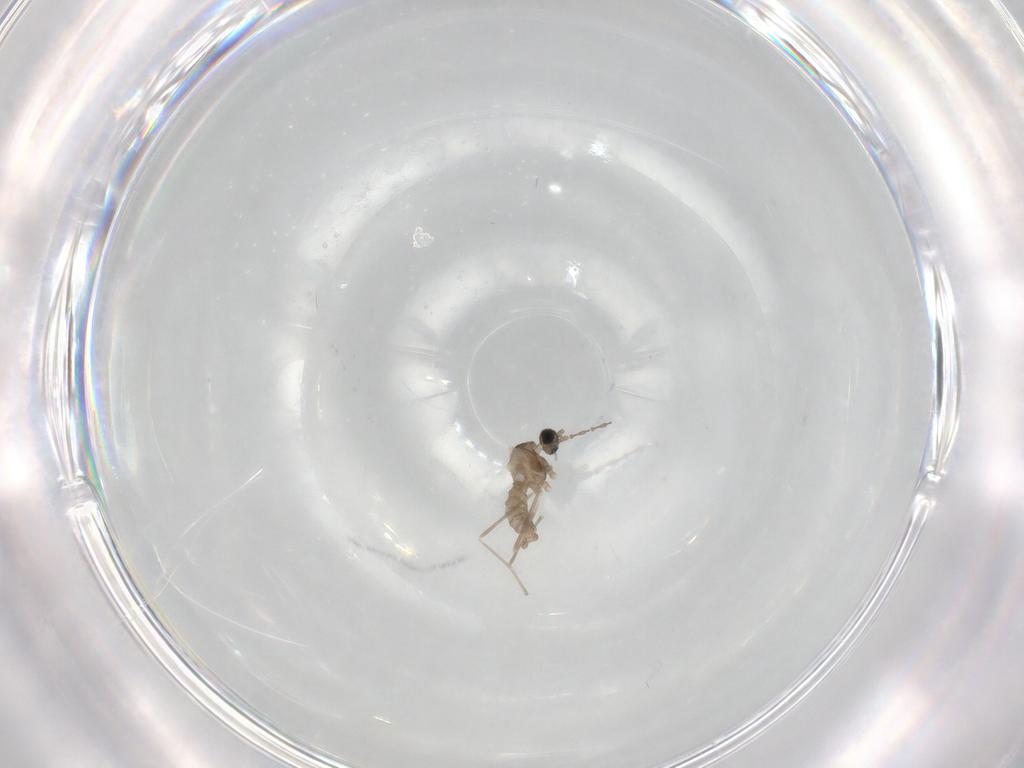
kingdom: Animalia
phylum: Arthropoda
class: Insecta
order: Diptera
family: Cecidomyiidae
